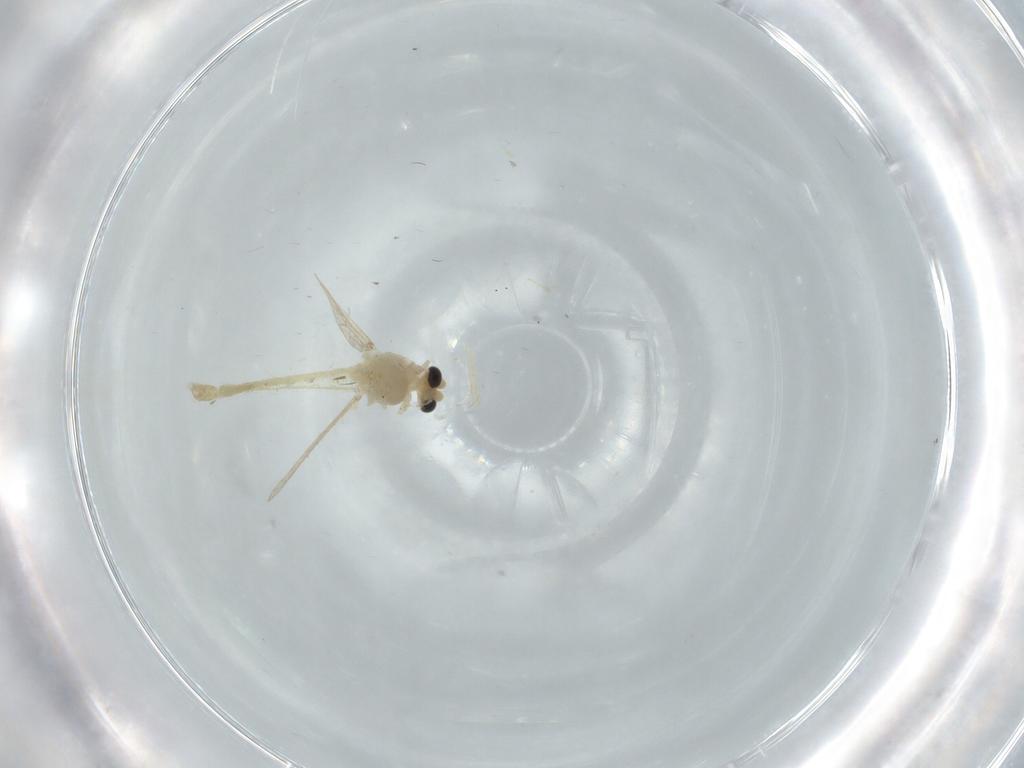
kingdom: Animalia
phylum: Arthropoda
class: Insecta
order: Diptera
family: Chironomidae
